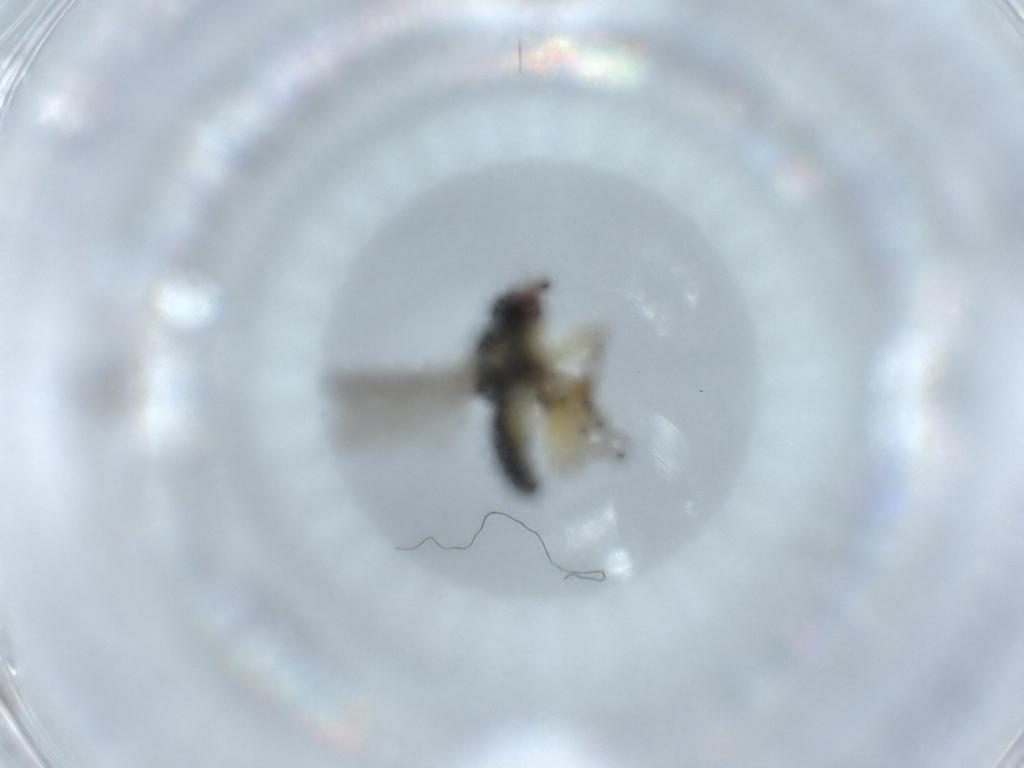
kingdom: Animalia
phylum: Arthropoda
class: Insecta
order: Diptera
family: Agromyzidae
